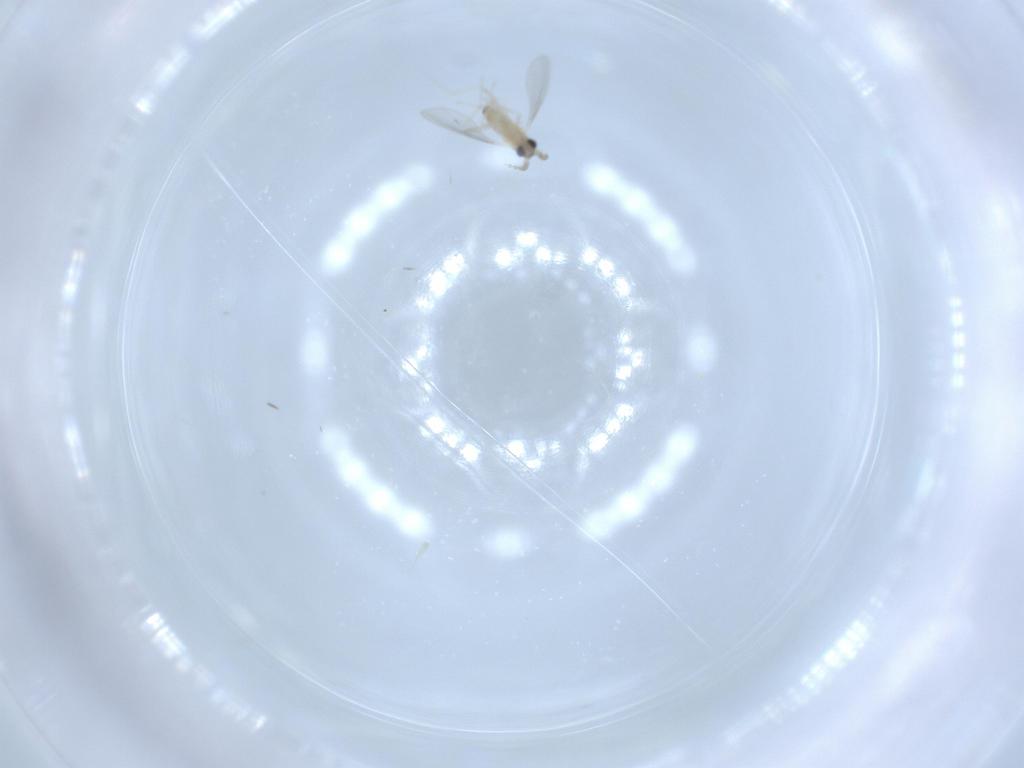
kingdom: Animalia
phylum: Arthropoda
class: Insecta
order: Diptera
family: Cecidomyiidae
